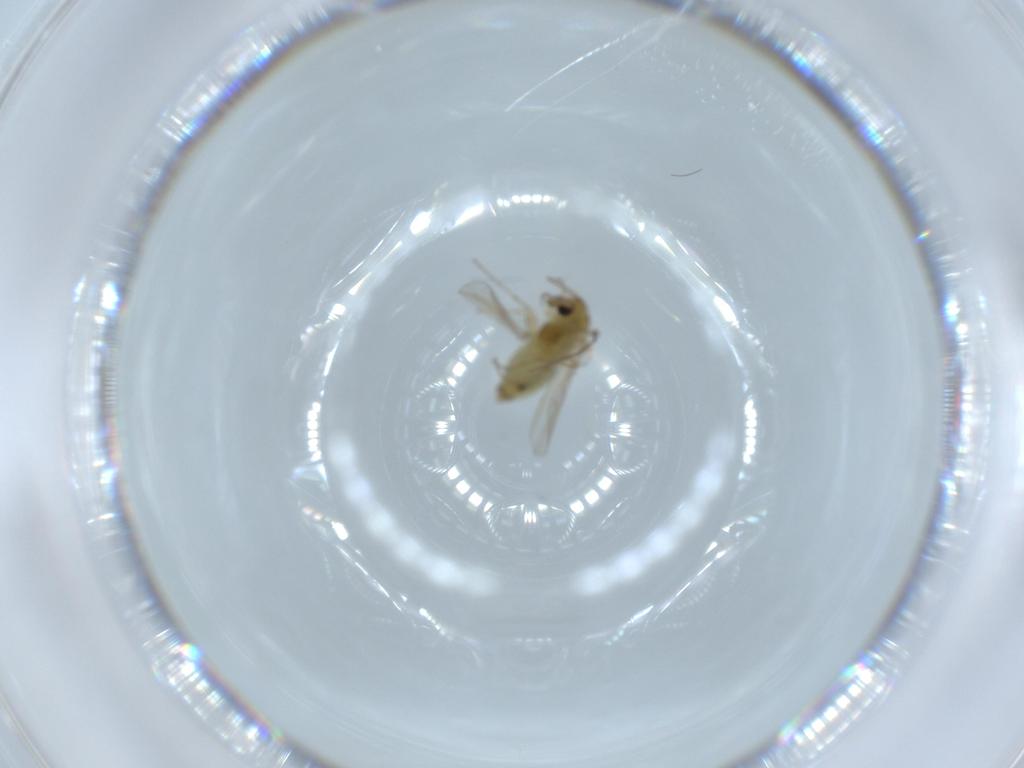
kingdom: Animalia
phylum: Arthropoda
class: Insecta
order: Diptera
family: Chironomidae
